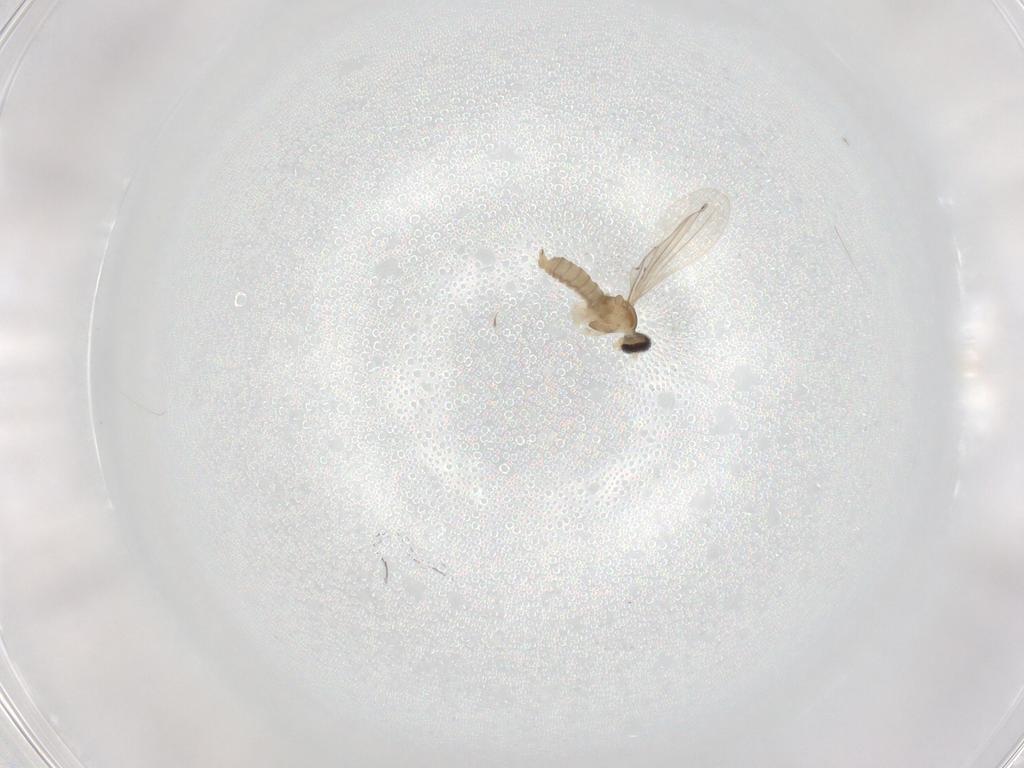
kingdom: Animalia
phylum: Arthropoda
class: Insecta
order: Diptera
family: Cecidomyiidae
